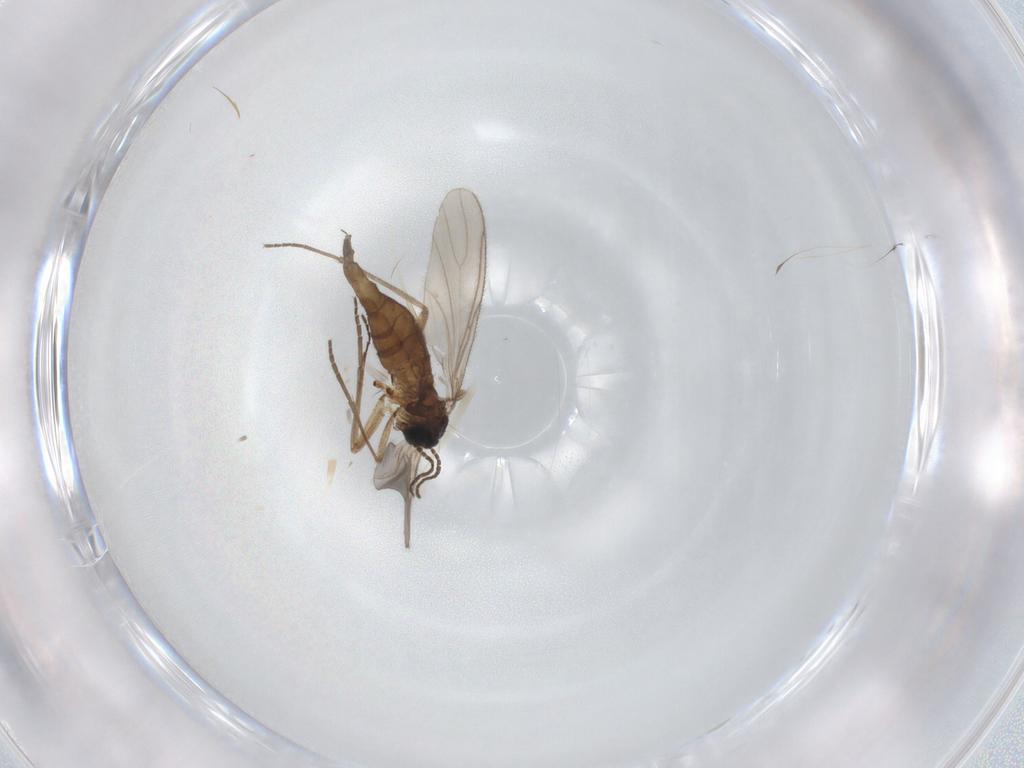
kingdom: Animalia
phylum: Arthropoda
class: Insecta
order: Diptera
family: Sciaridae
